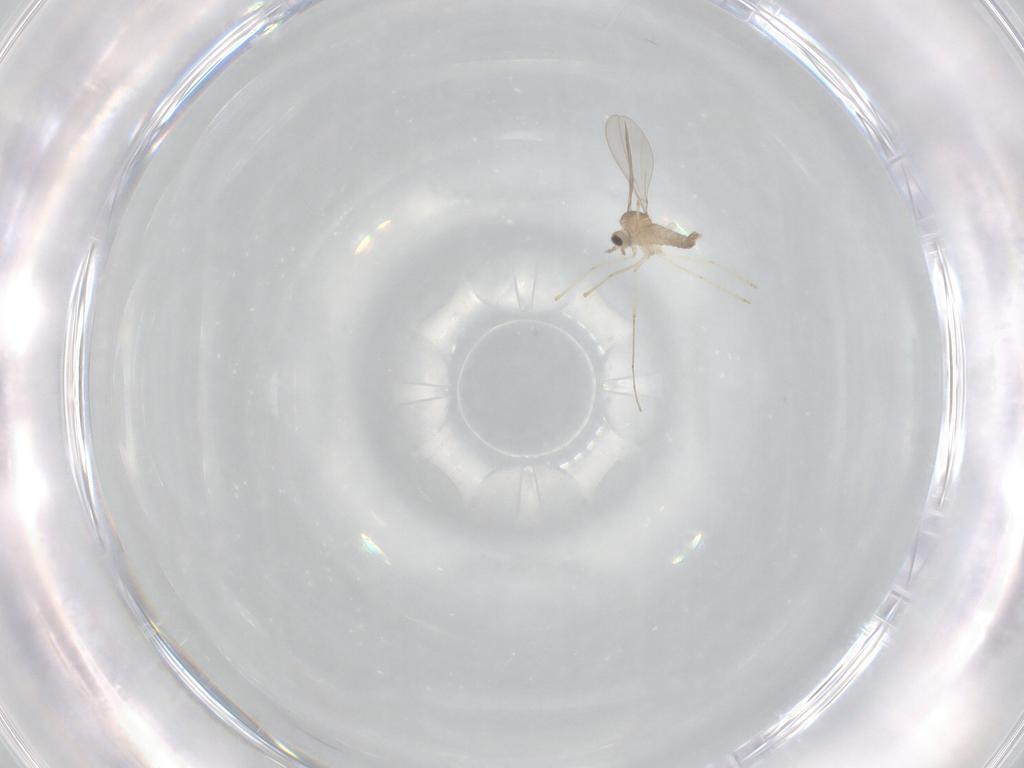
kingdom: Animalia
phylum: Arthropoda
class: Insecta
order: Diptera
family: Cecidomyiidae
